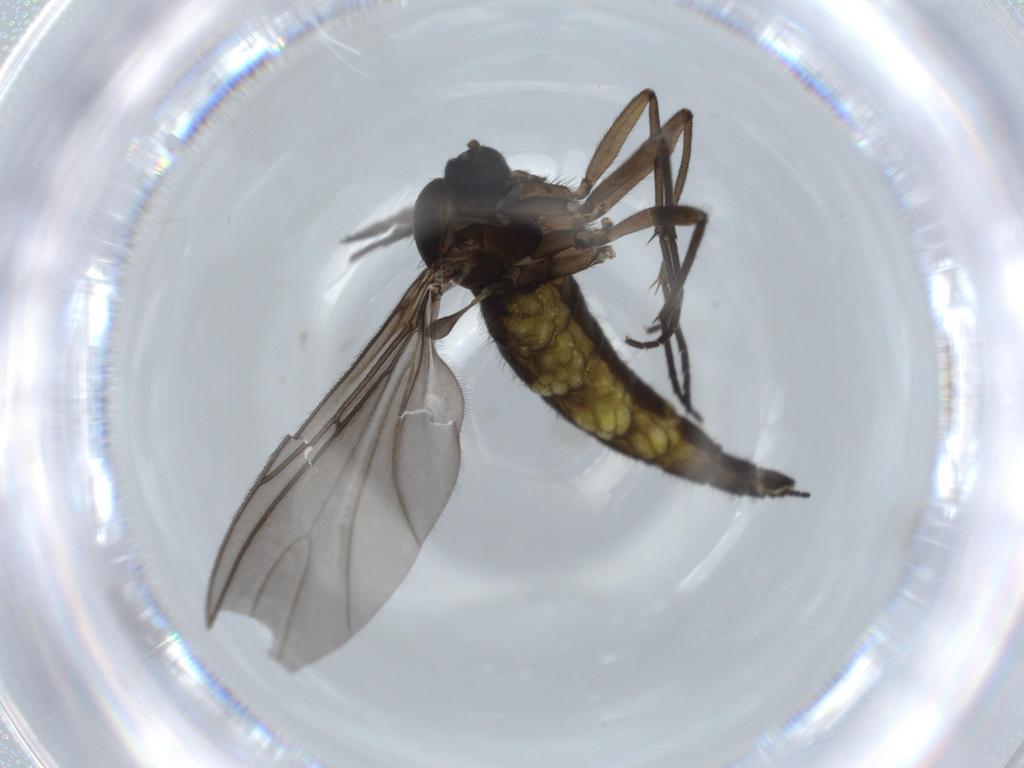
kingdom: Animalia
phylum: Arthropoda
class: Insecta
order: Diptera
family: Sciaridae
